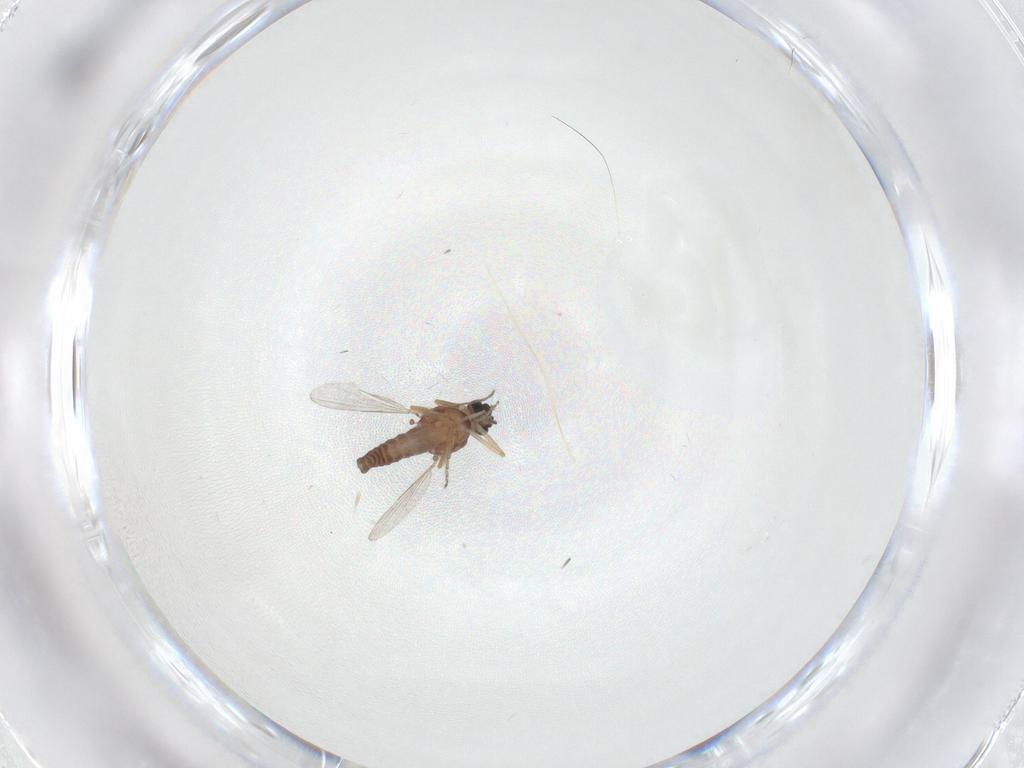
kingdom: Animalia
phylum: Arthropoda
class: Insecta
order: Diptera
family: Ceratopogonidae
